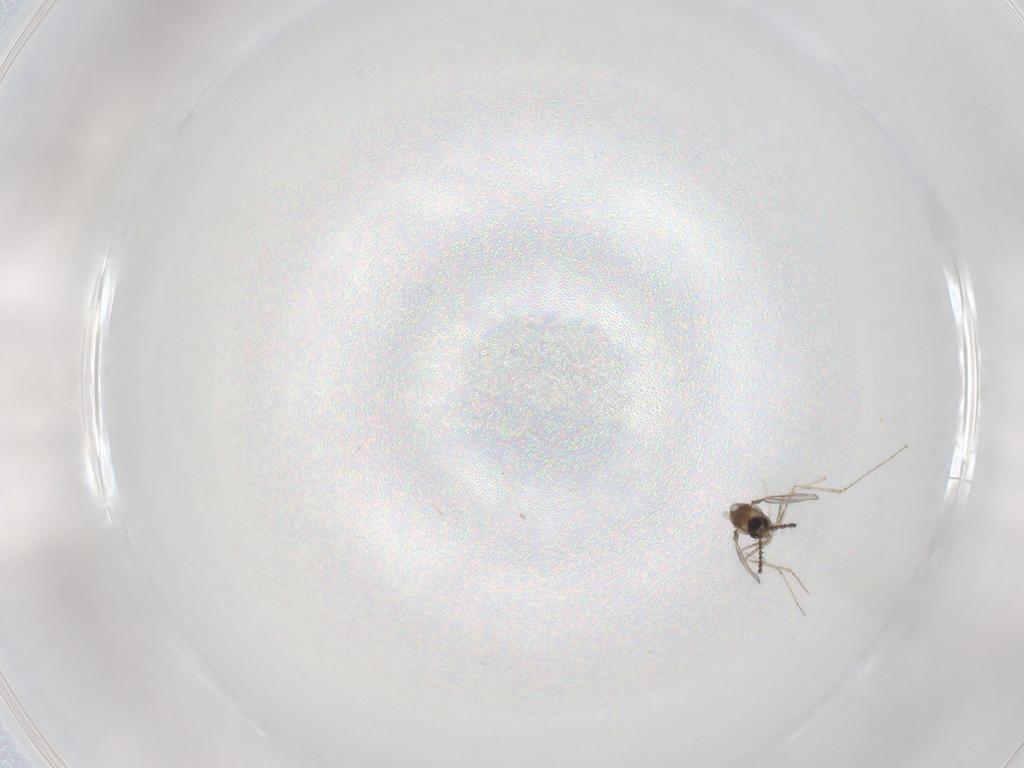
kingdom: Animalia
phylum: Arthropoda
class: Insecta
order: Diptera
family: Cecidomyiidae
